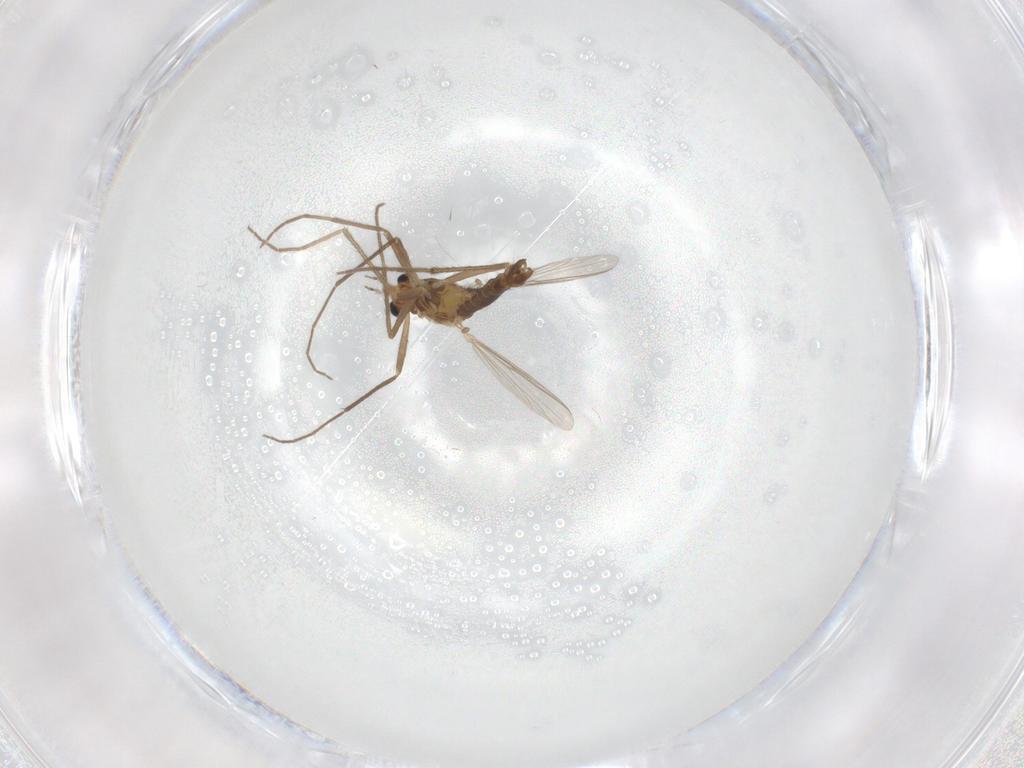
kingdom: Animalia
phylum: Arthropoda
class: Insecta
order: Diptera
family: Chironomidae
